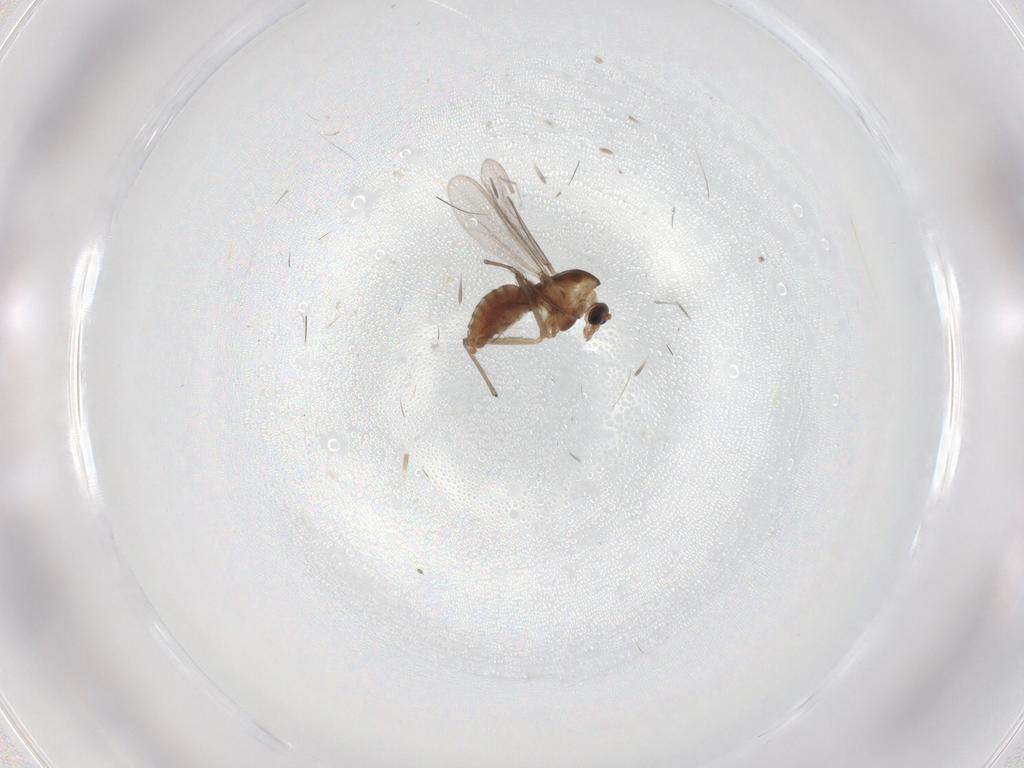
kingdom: Animalia
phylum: Arthropoda
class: Insecta
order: Diptera
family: Chironomidae
